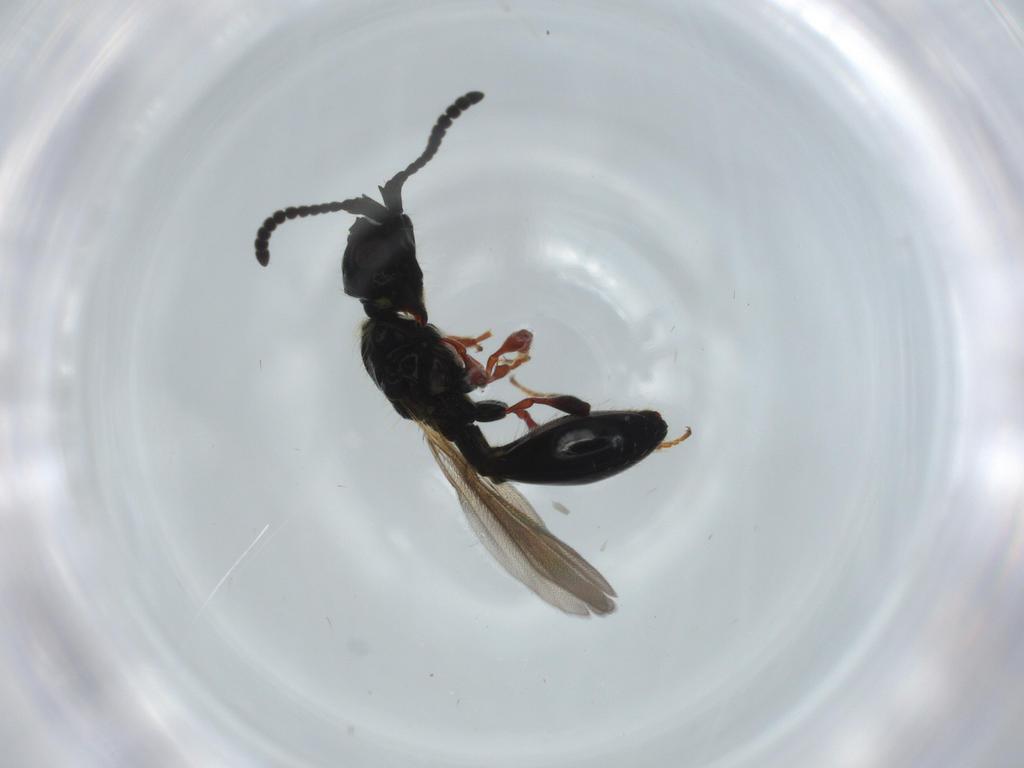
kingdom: Animalia
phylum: Arthropoda
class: Insecta
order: Hymenoptera
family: Diapriidae
